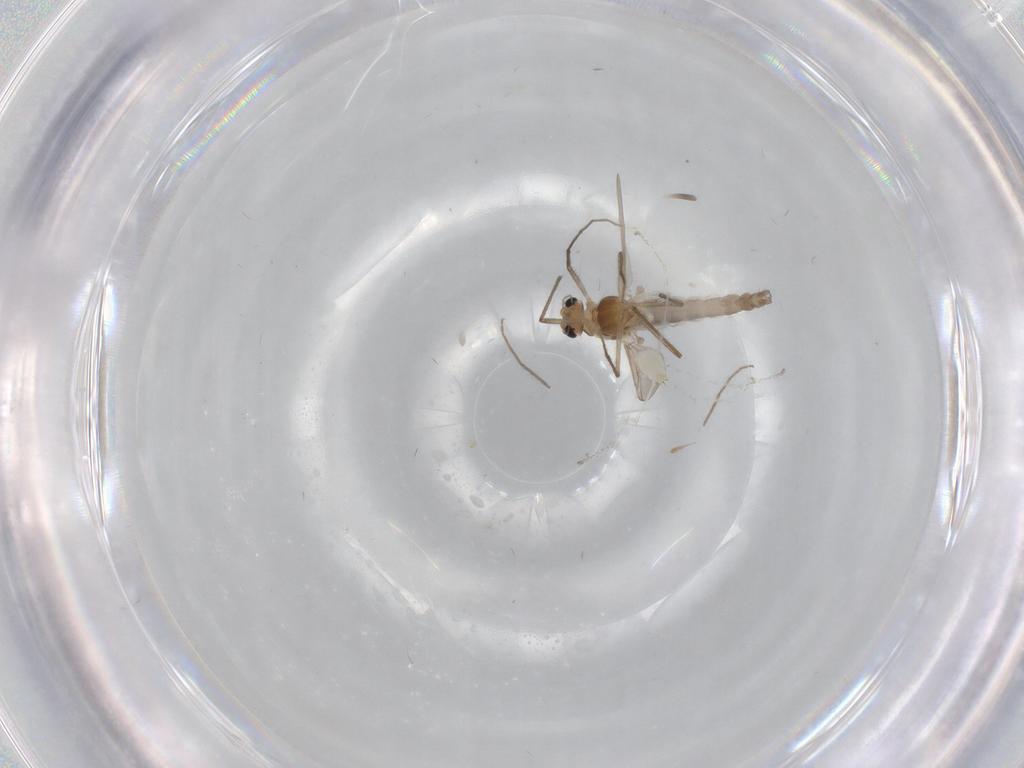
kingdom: Animalia
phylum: Arthropoda
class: Insecta
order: Diptera
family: Chironomidae
